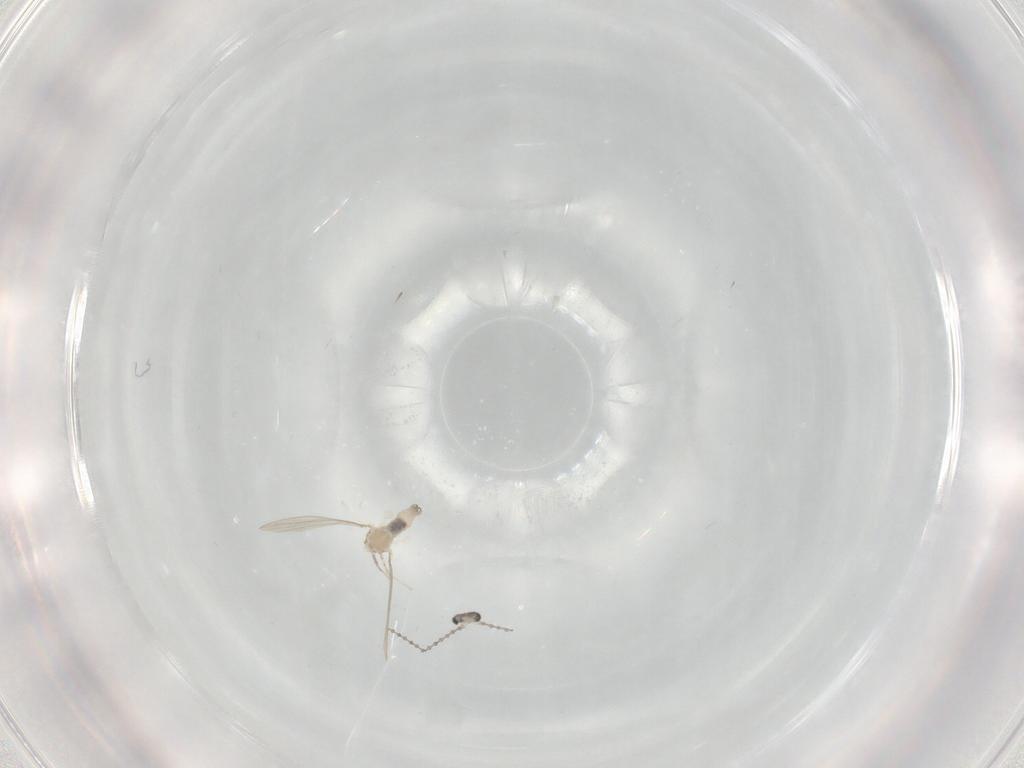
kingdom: Animalia
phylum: Arthropoda
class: Insecta
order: Diptera
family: Cecidomyiidae
